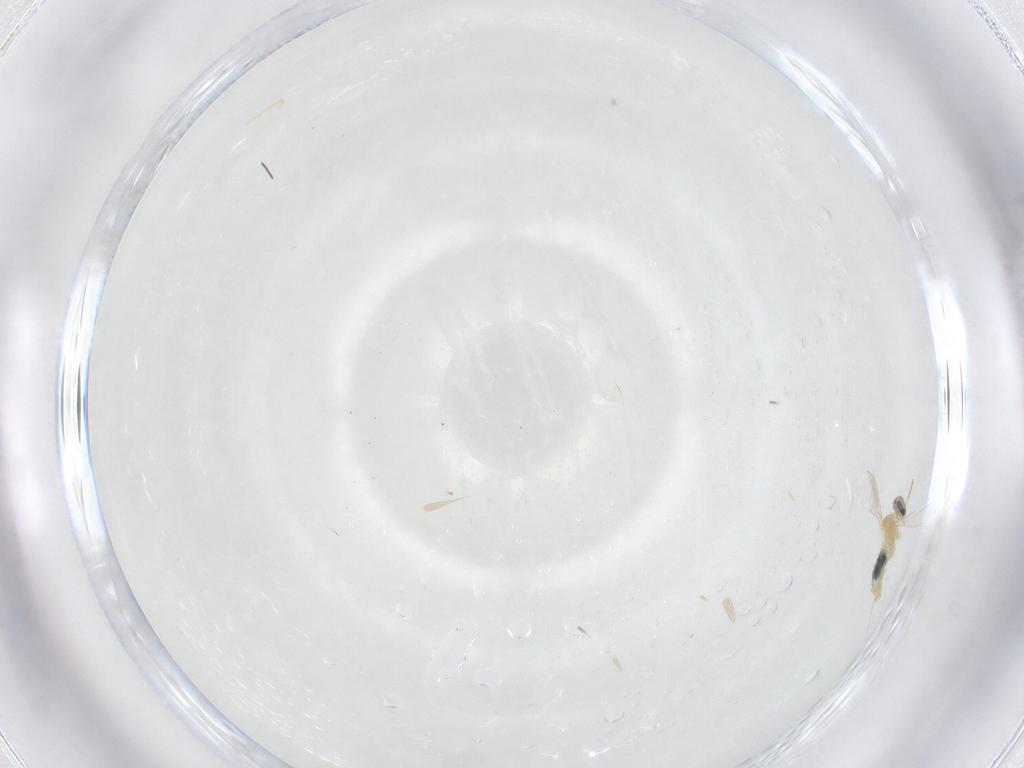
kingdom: Animalia
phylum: Arthropoda
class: Insecta
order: Diptera
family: Cecidomyiidae
